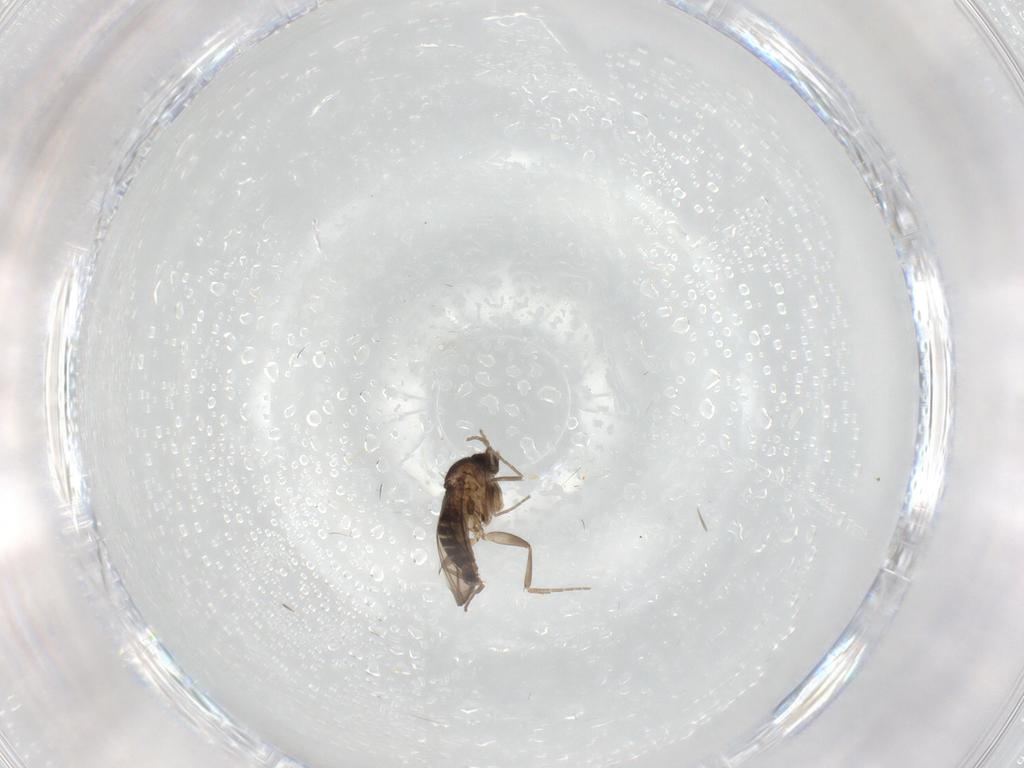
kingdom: Animalia
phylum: Arthropoda
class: Insecta
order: Diptera
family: Phoridae
